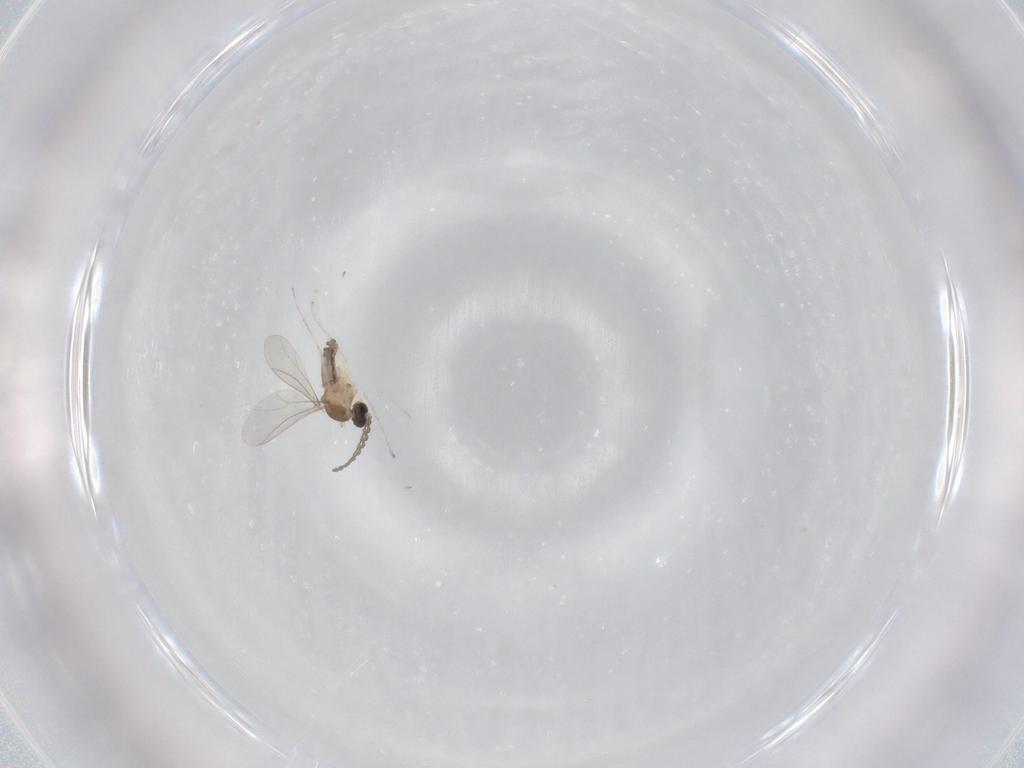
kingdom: Animalia
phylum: Arthropoda
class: Insecta
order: Diptera
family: Cecidomyiidae
